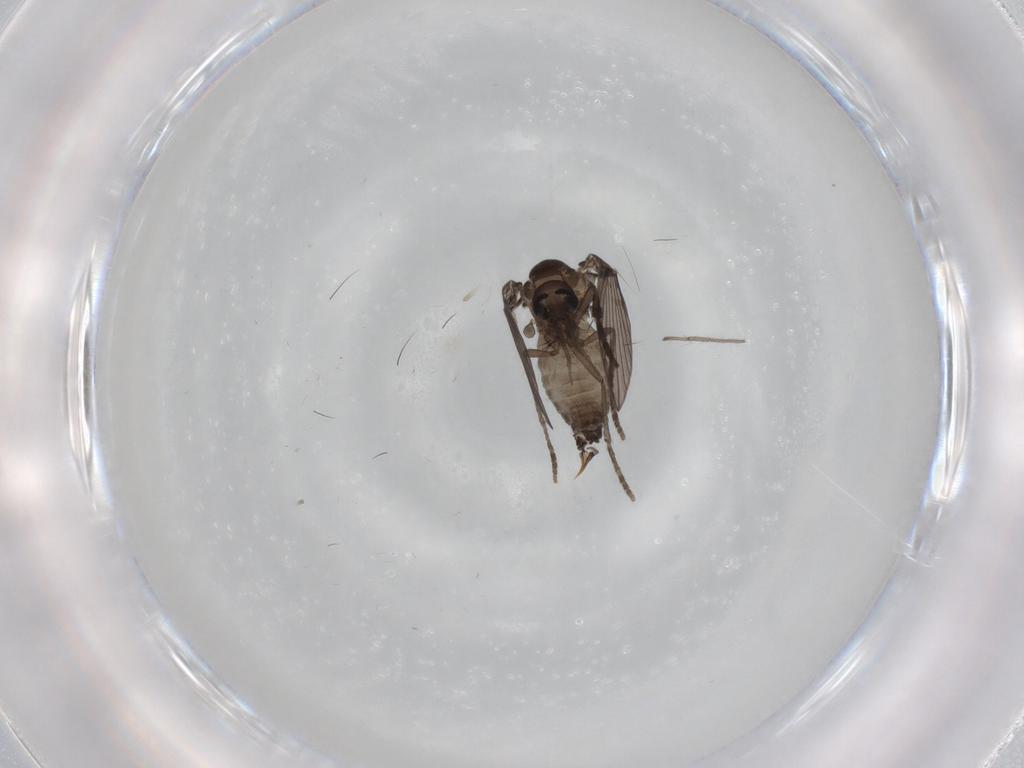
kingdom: Animalia
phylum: Arthropoda
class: Insecta
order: Diptera
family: Psychodidae
